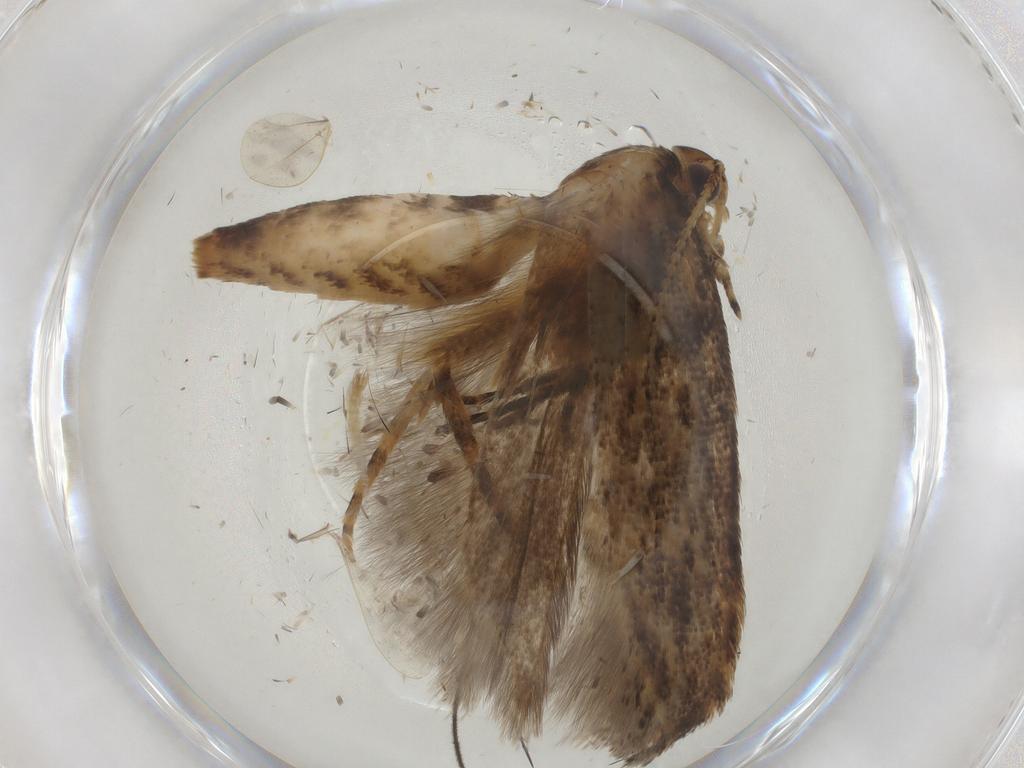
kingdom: Animalia
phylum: Arthropoda
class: Insecta
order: Lepidoptera
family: Gelechiidae
